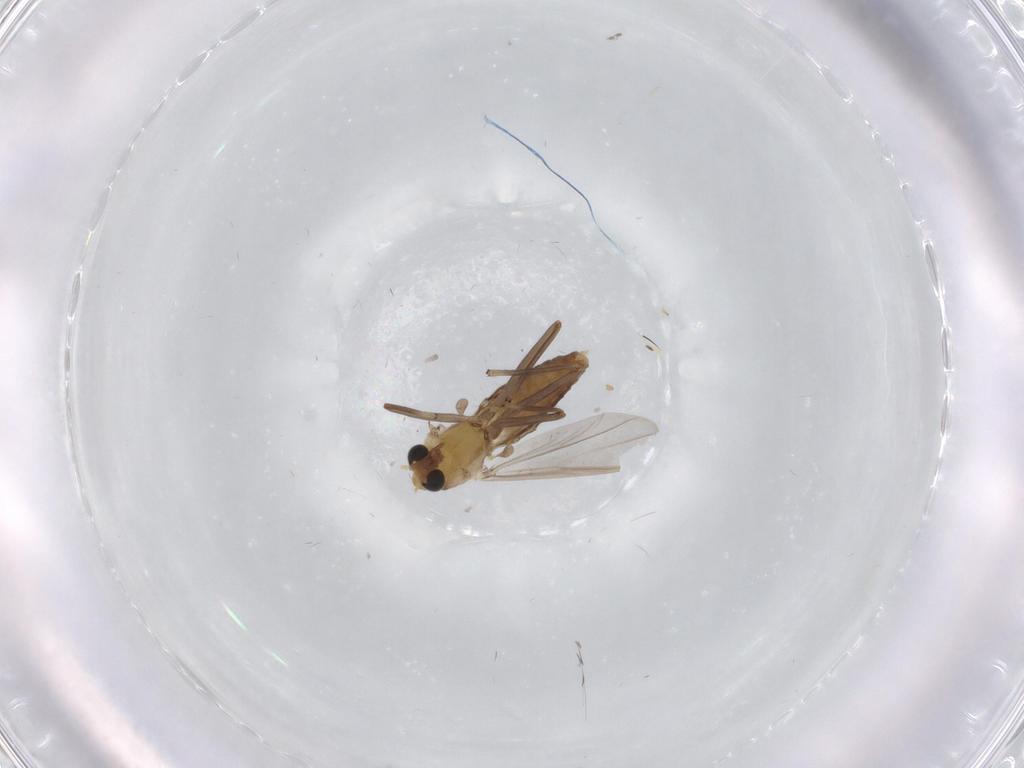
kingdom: Animalia
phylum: Arthropoda
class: Insecta
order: Diptera
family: Chironomidae
